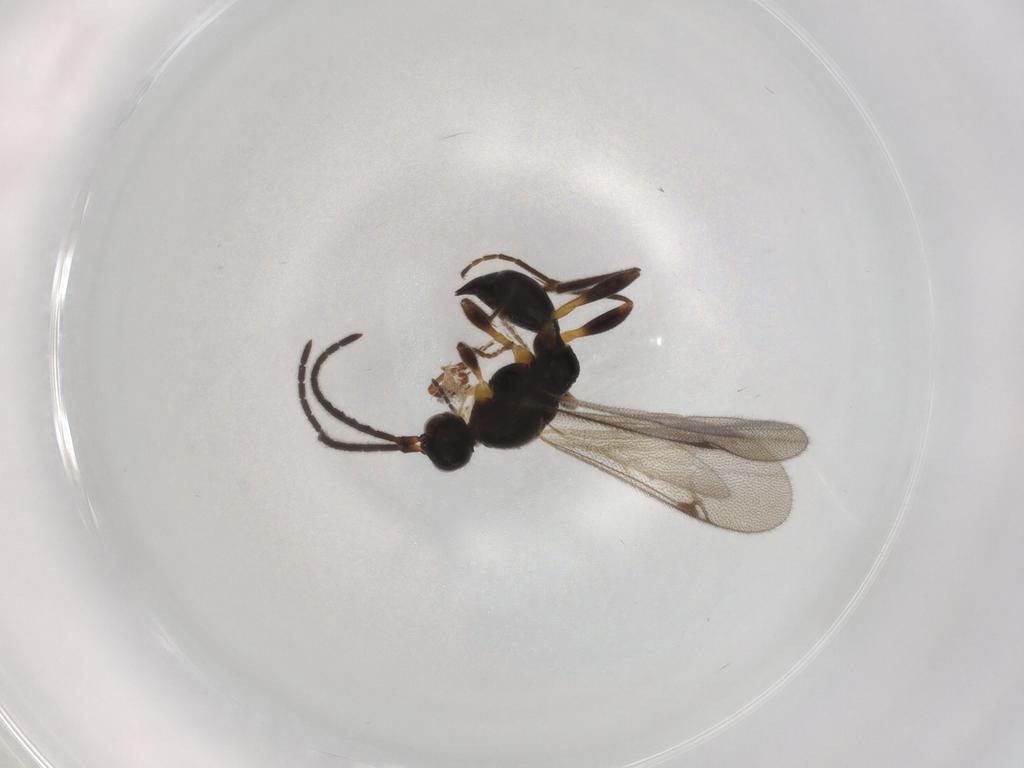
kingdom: Animalia
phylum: Arthropoda
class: Insecta
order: Hymenoptera
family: Proctotrupidae
